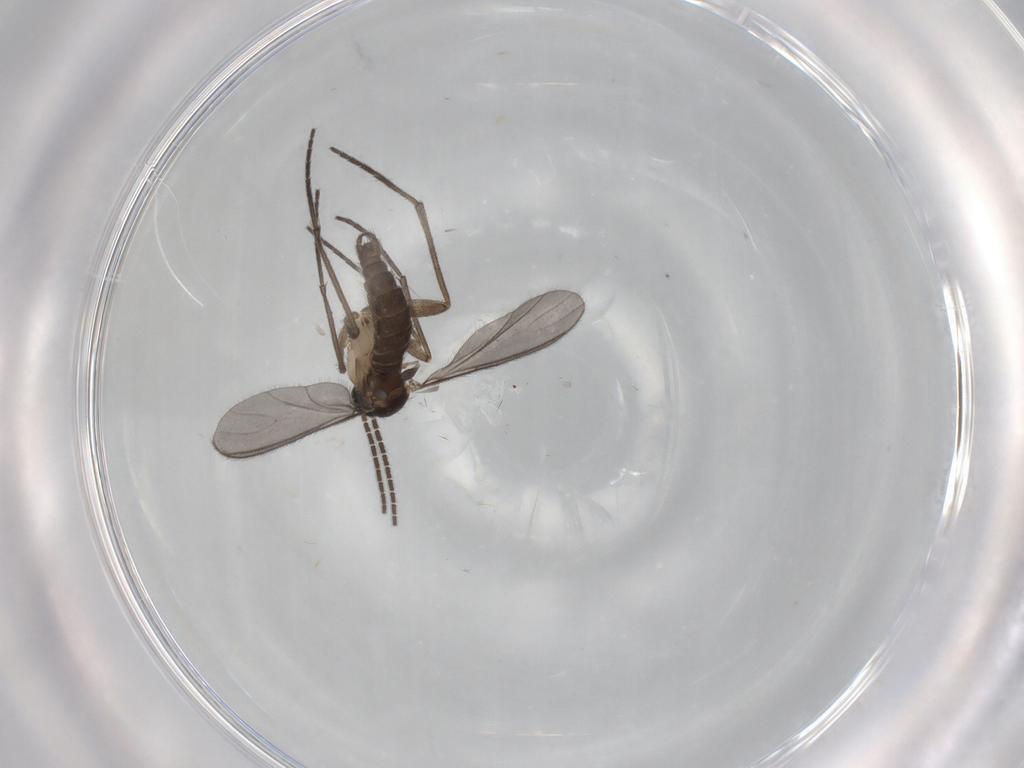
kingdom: Animalia
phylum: Arthropoda
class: Insecta
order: Diptera
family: Sciaridae
